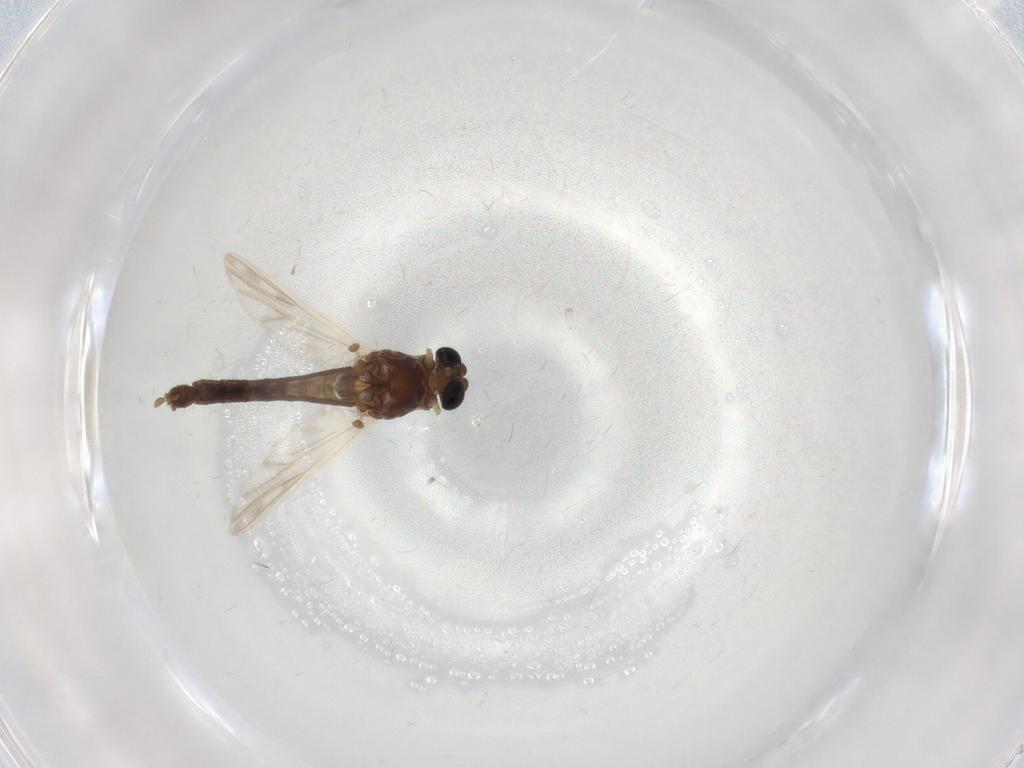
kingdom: Animalia
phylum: Arthropoda
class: Insecta
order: Diptera
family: Chironomidae
